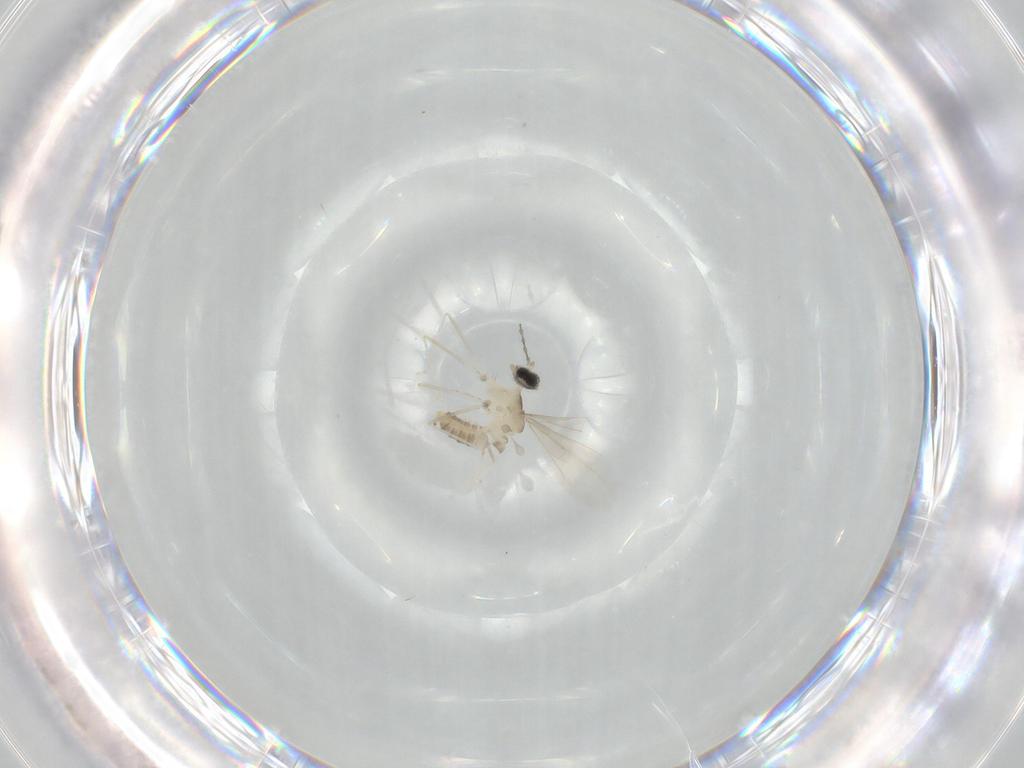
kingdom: Animalia
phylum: Arthropoda
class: Insecta
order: Diptera
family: Cecidomyiidae
